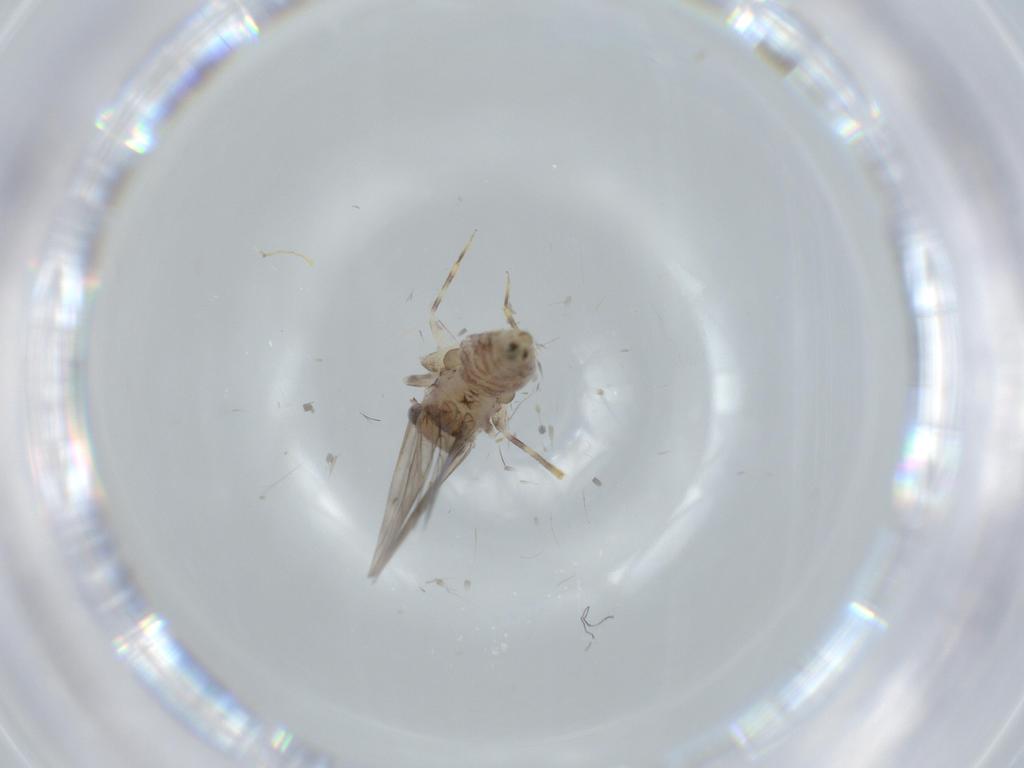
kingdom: Animalia
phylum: Arthropoda
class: Insecta
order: Psocodea
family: Lepidopsocidae
